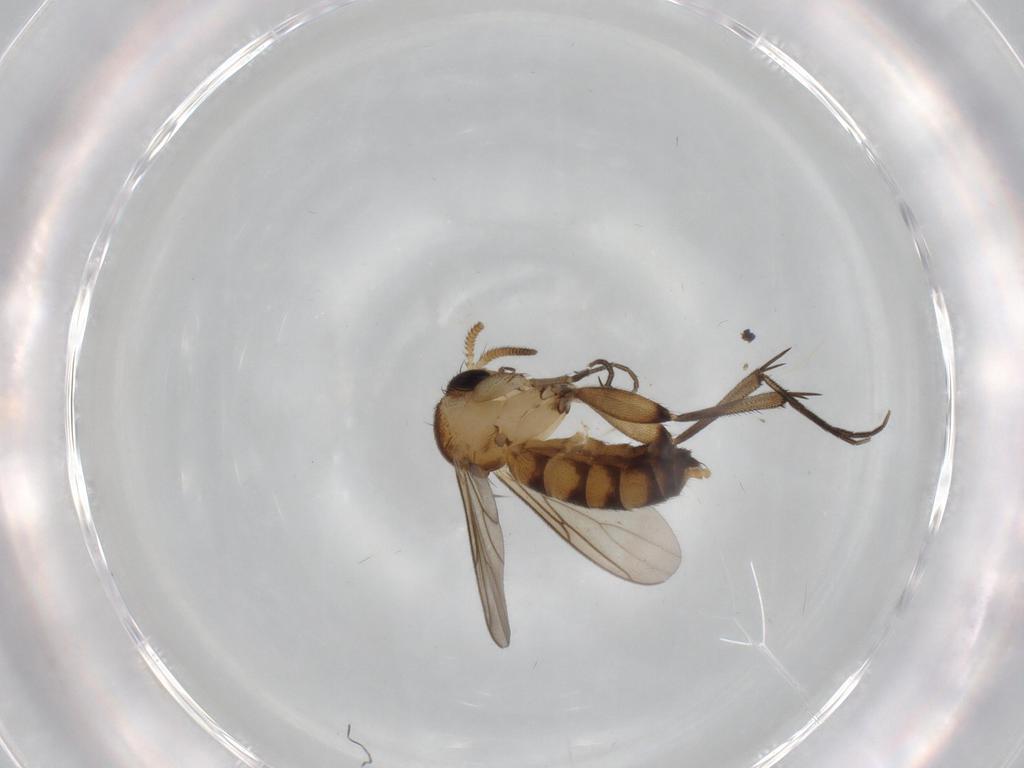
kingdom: Animalia
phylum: Arthropoda
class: Insecta
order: Diptera
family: Mycetophilidae
